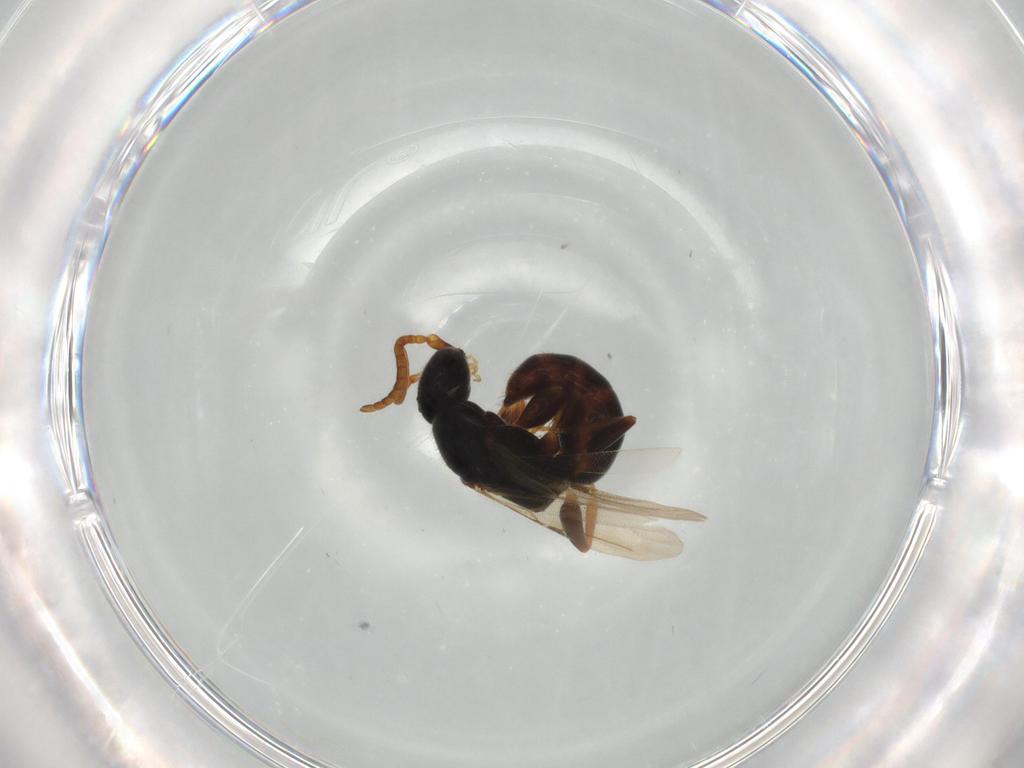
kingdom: Animalia
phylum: Arthropoda
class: Insecta
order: Hymenoptera
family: Bethylidae
